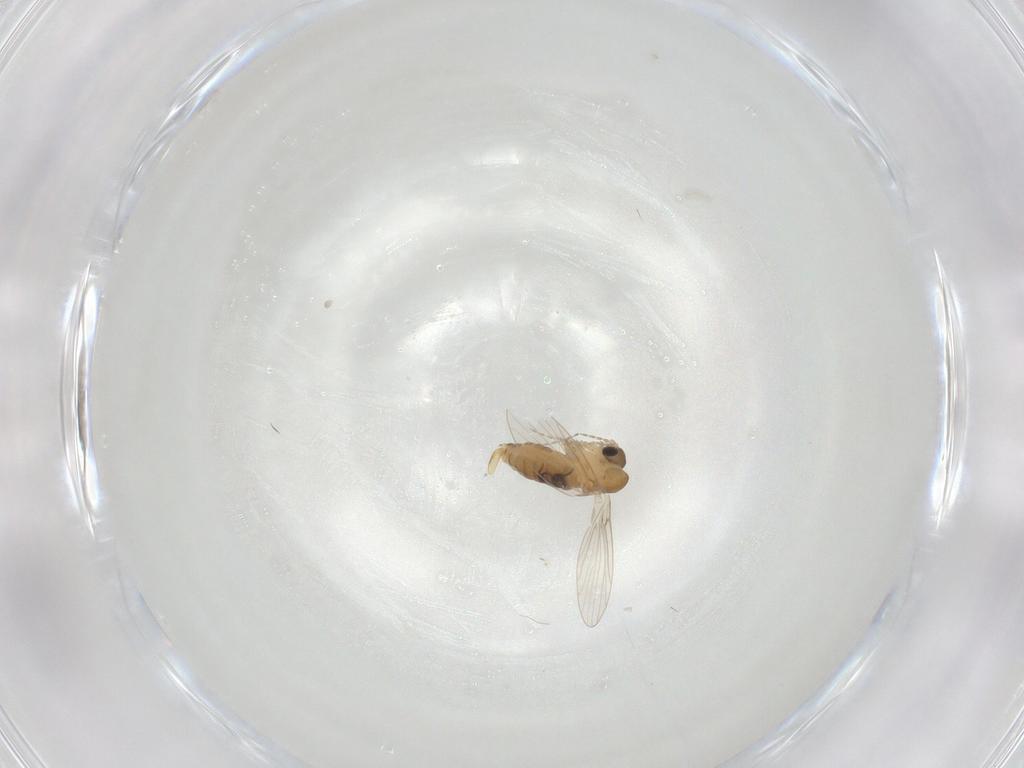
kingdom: Animalia
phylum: Arthropoda
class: Insecta
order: Diptera
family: Psychodidae
